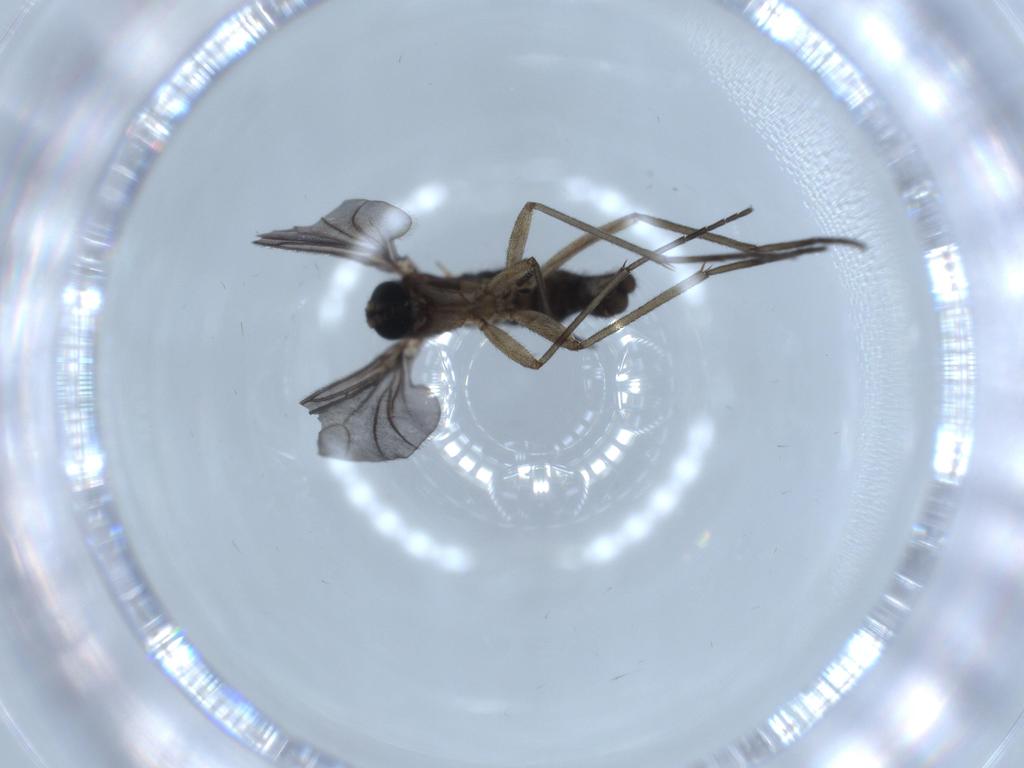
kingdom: Animalia
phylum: Arthropoda
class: Insecta
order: Diptera
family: Sciaridae
